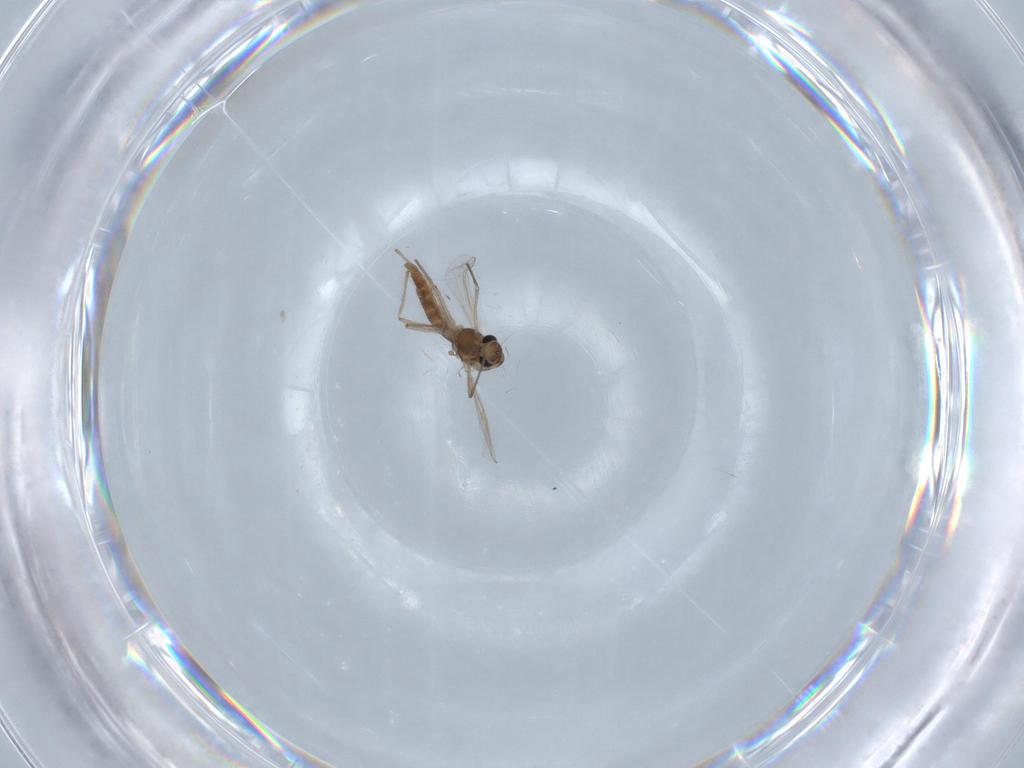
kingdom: Animalia
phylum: Arthropoda
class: Insecta
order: Diptera
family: Chironomidae
